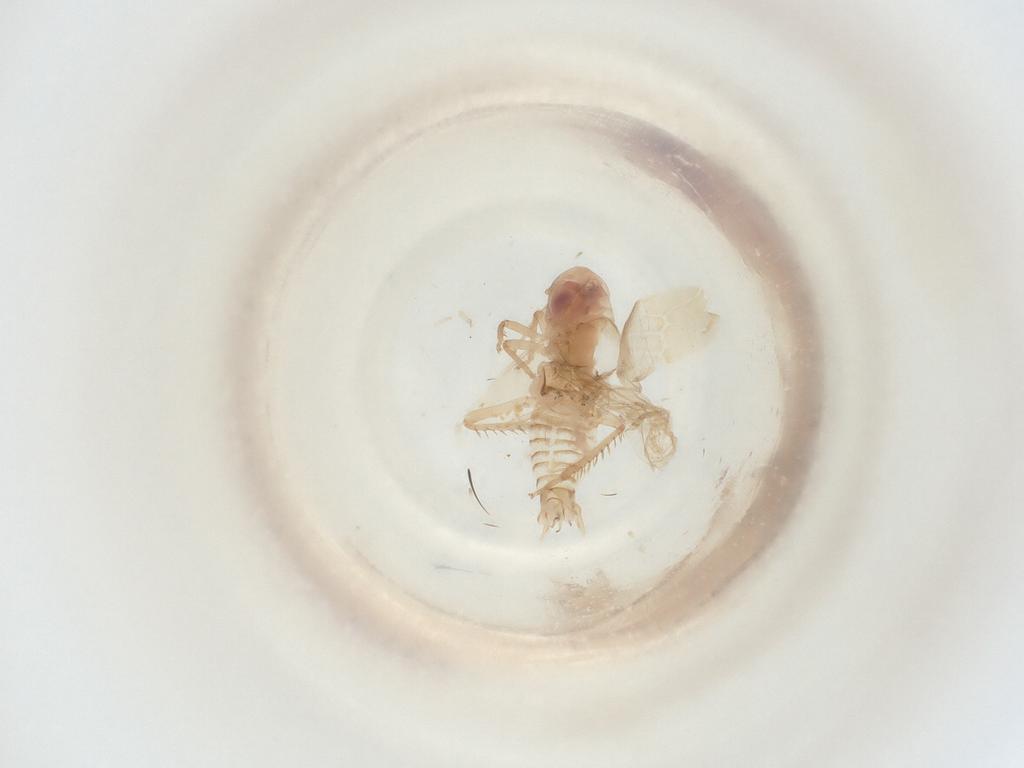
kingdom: Animalia
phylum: Arthropoda
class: Insecta
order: Hemiptera
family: Cicadellidae
